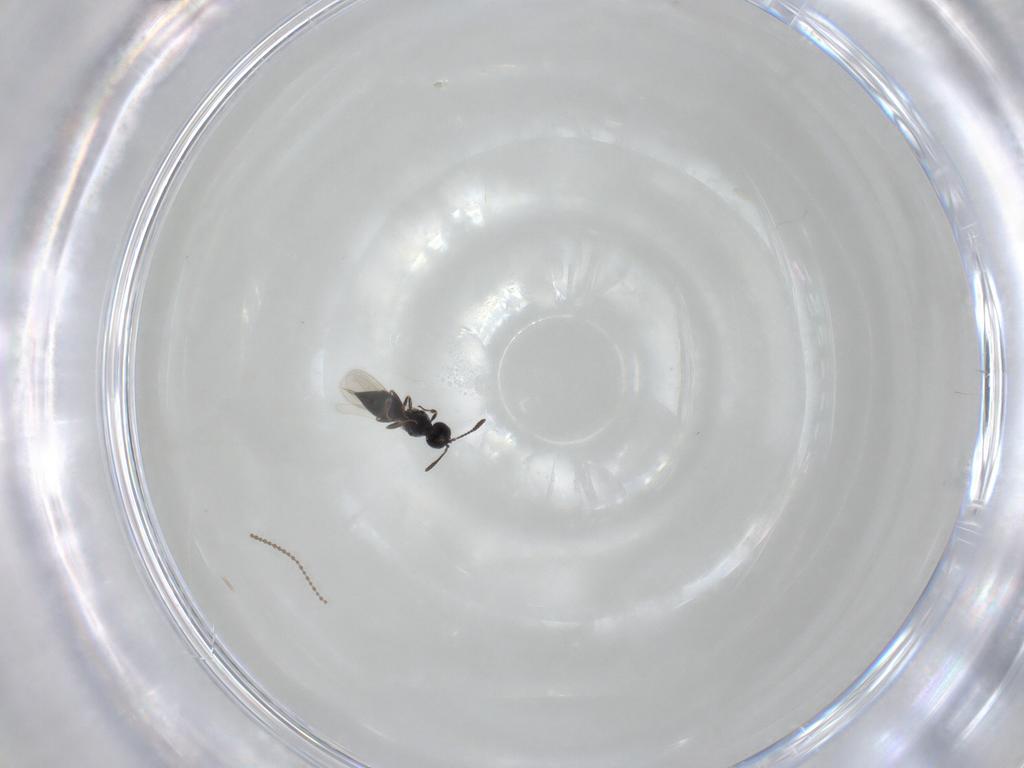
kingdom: Animalia
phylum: Arthropoda
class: Insecta
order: Hymenoptera
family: Scelionidae
